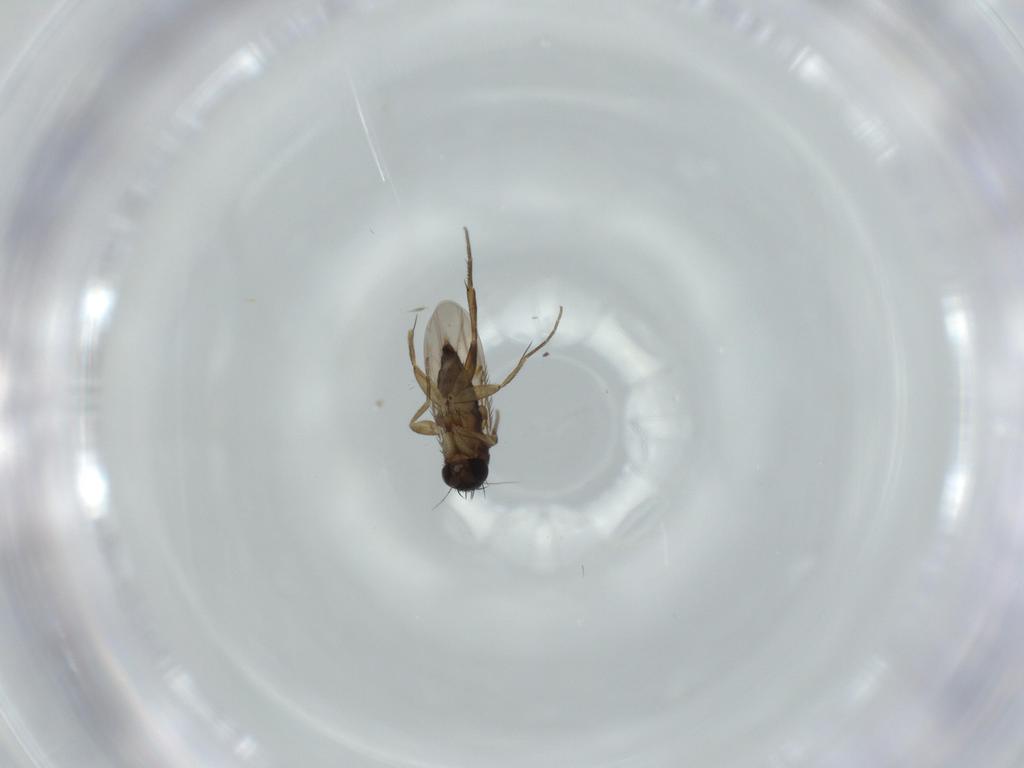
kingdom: Animalia
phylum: Arthropoda
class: Insecta
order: Diptera
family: Phoridae
